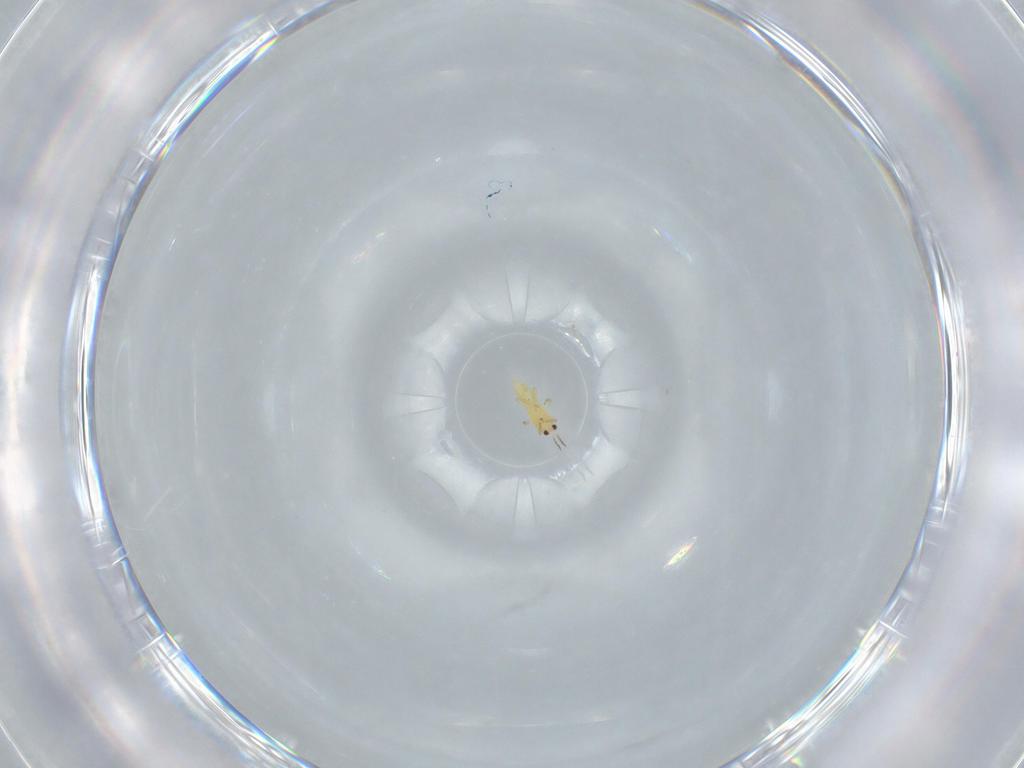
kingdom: Animalia
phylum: Arthropoda
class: Insecta
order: Thysanoptera
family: Thripidae
